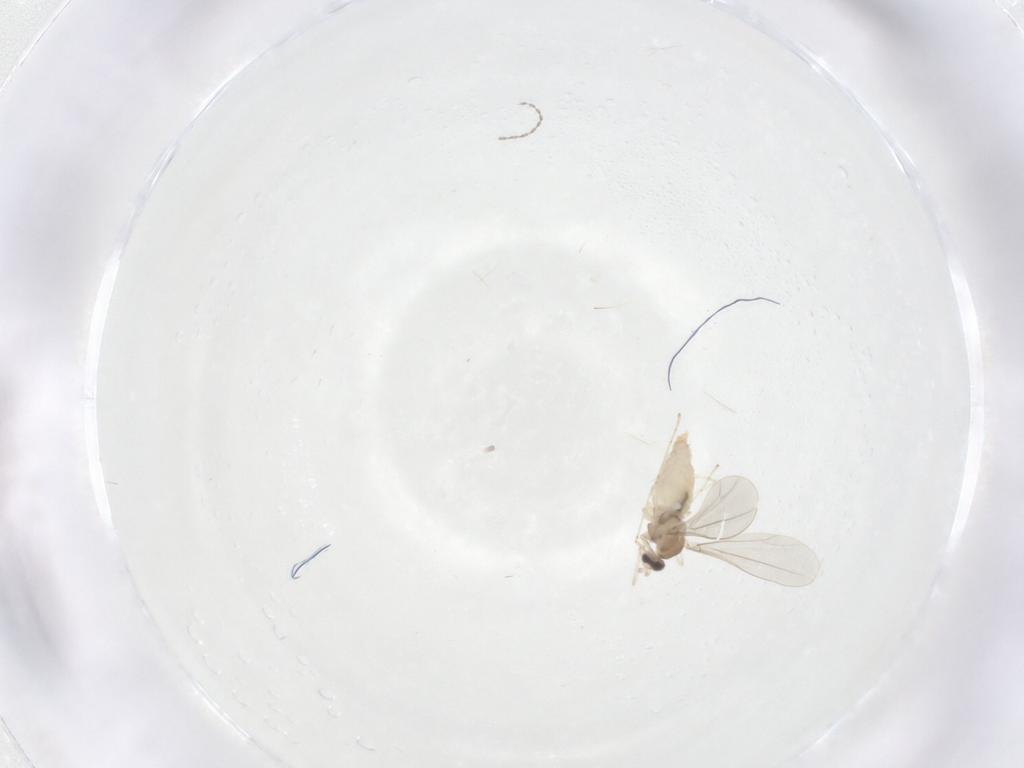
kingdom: Animalia
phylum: Arthropoda
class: Insecta
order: Diptera
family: Cecidomyiidae
